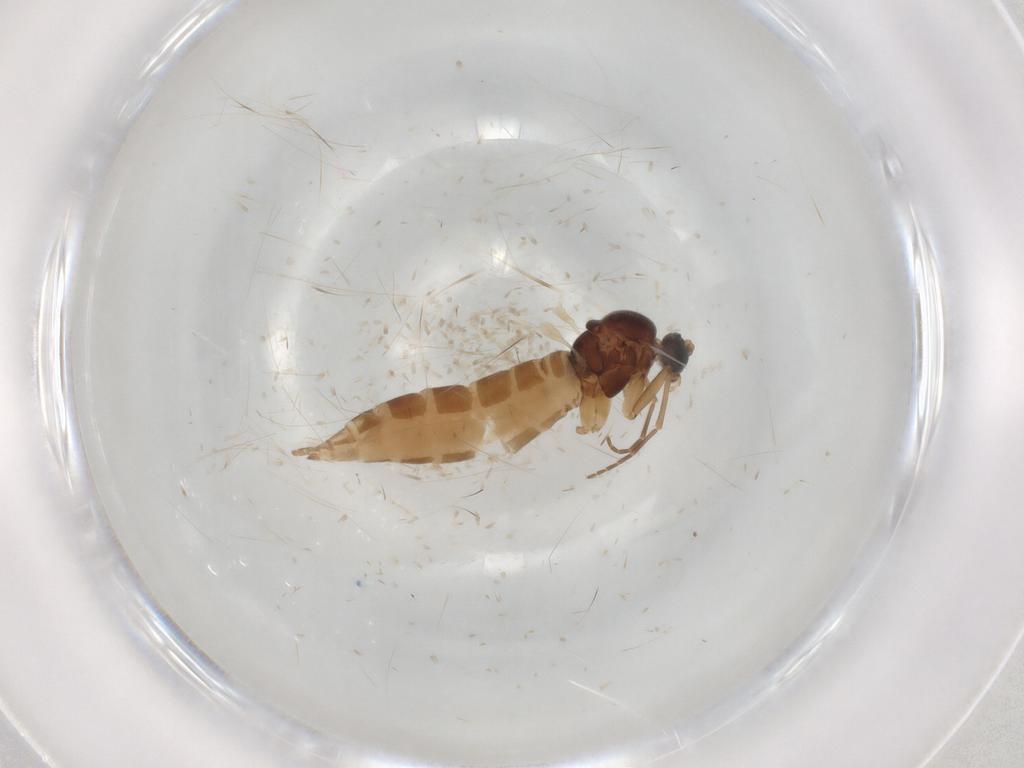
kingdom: Animalia
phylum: Arthropoda
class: Insecta
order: Diptera
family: Sciaridae
